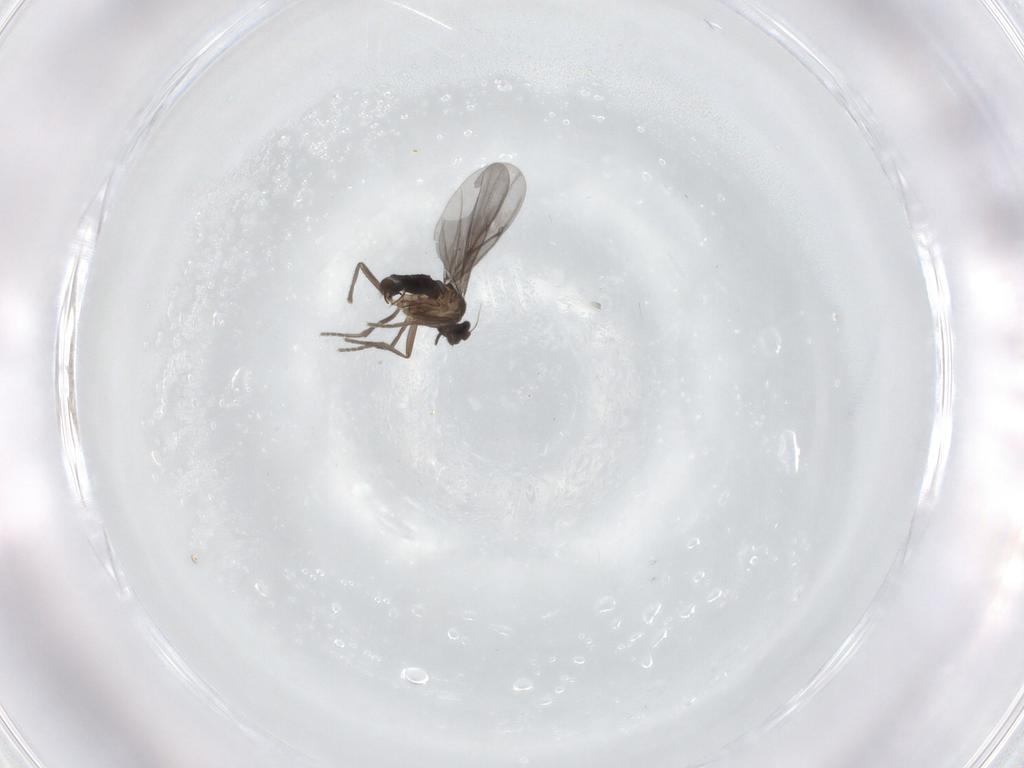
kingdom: Animalia
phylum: Arthropoda
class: Insecta
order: Diptera
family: Phoridae
